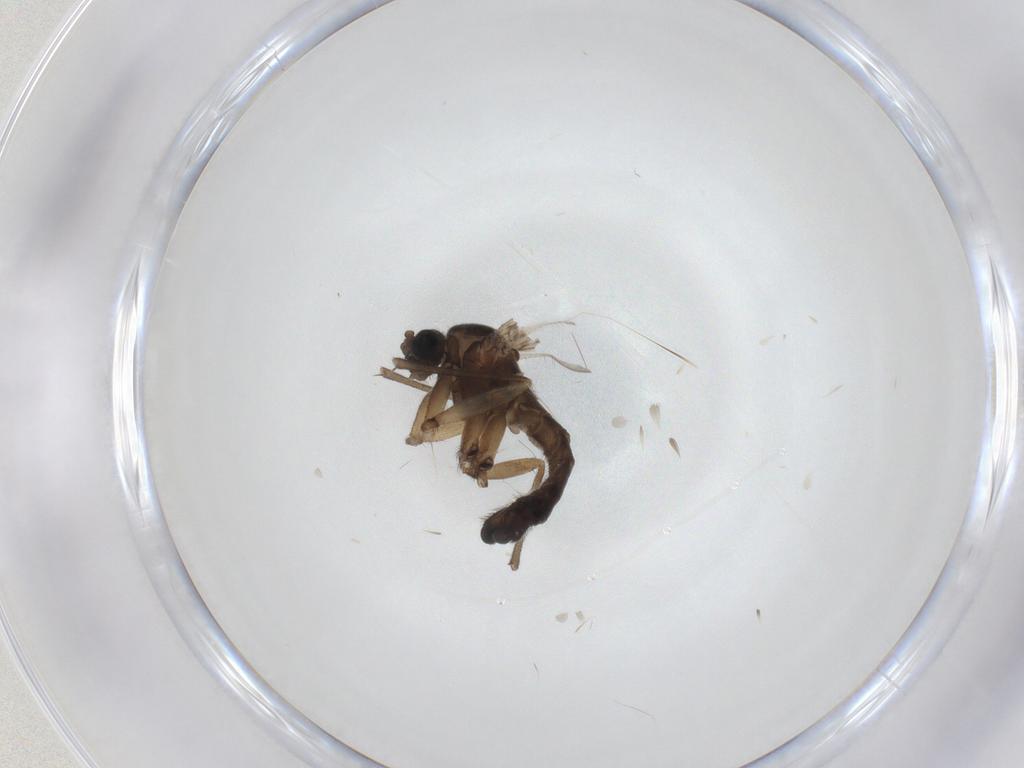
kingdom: Animalia
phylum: Arthropoda
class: Insecta
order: Diptera
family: Sciaridae
